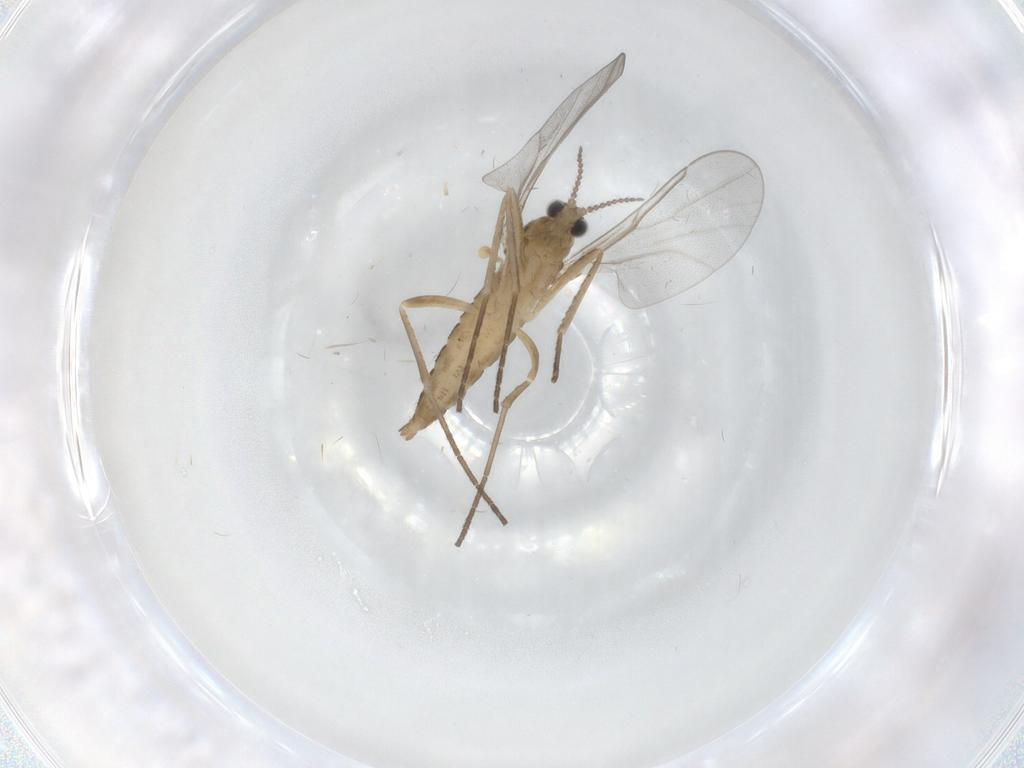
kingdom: Animalia
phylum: Arthropoda
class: Insecta
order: Diptera
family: Cecidomyiidae
